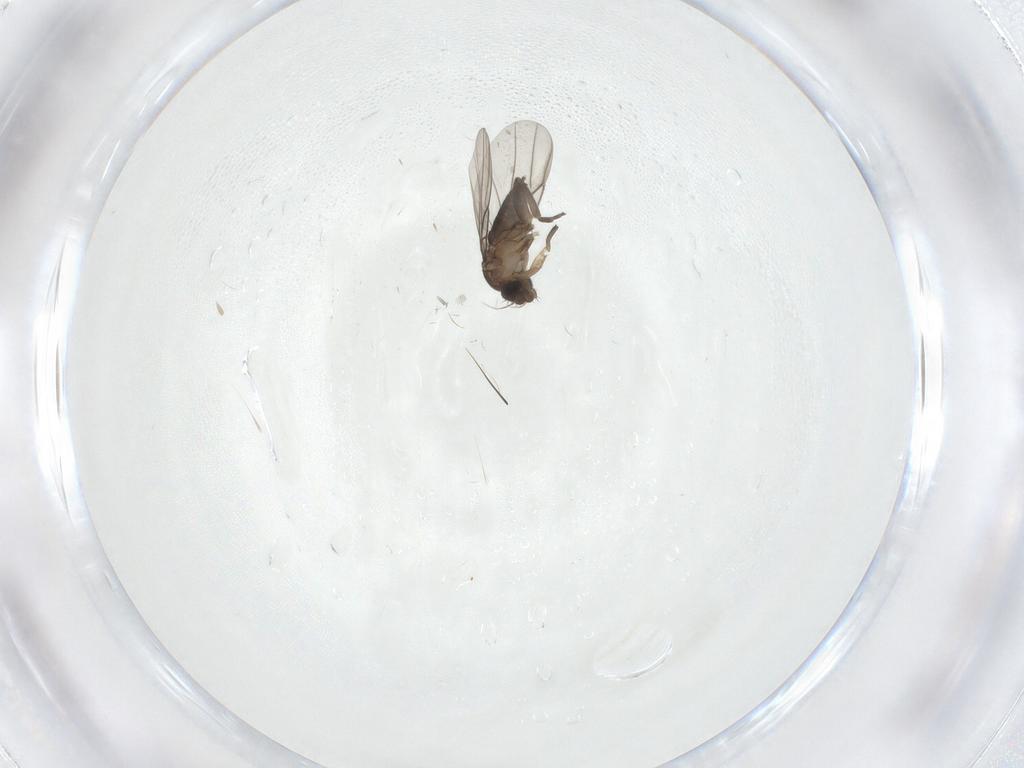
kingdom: Animalia
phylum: Arthropoda
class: Insecta
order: Diptera
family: Phoridae
